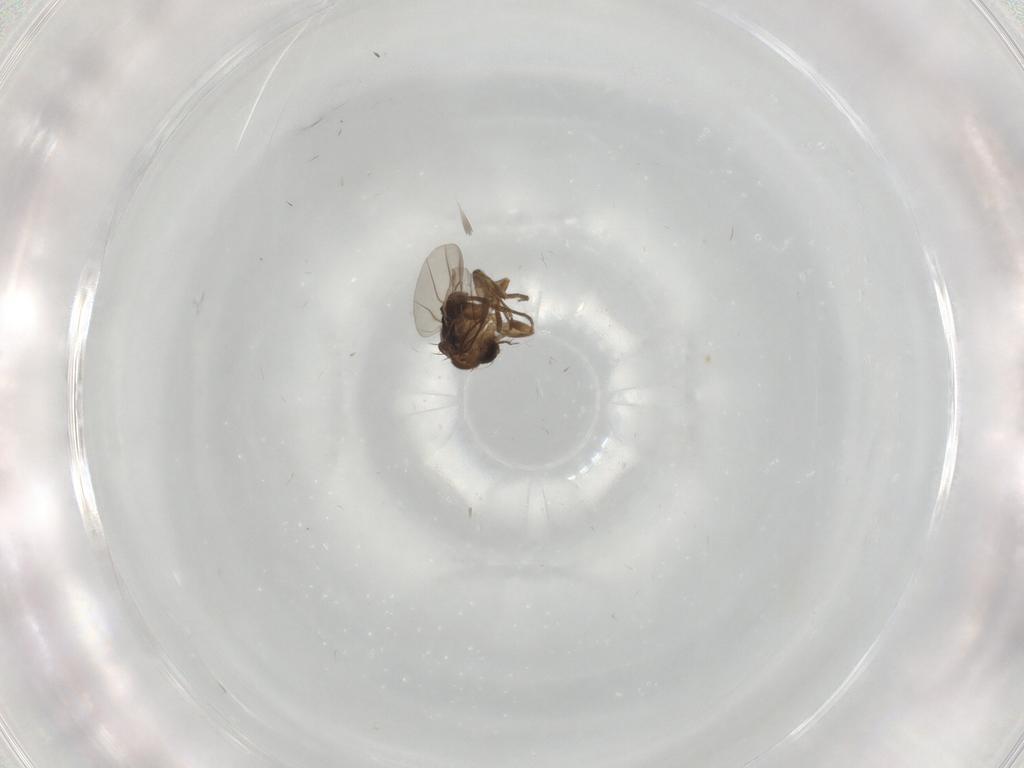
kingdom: Animalia
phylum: Arthropoda
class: Insecta
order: Diptera
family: Phoridae
